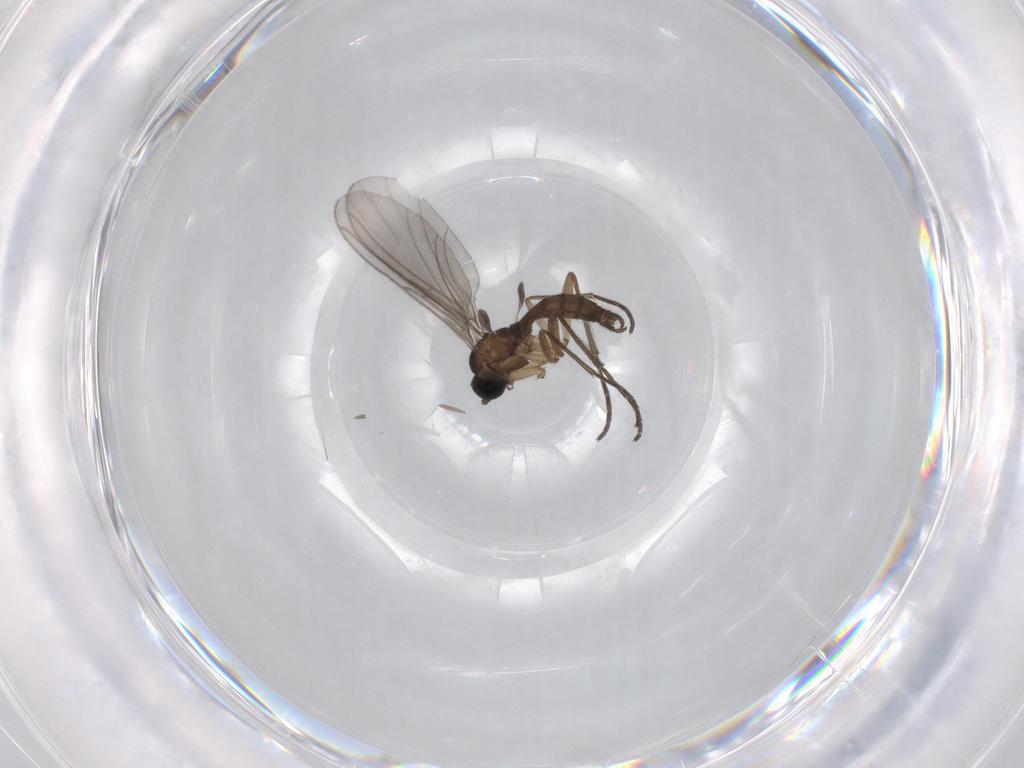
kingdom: Animalia
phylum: Arthropoda
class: Insecta
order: Diptera
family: Sciaridae
